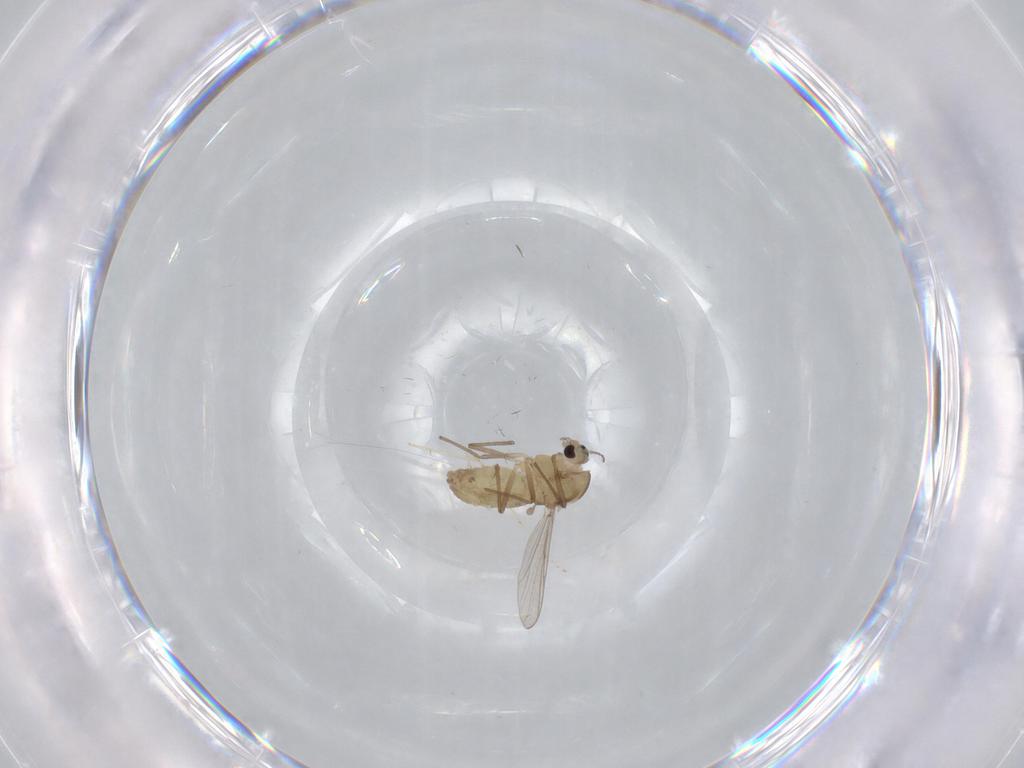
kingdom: Animalia
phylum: Arthropoda
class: Insecta
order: Diptera
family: Chironomidae
